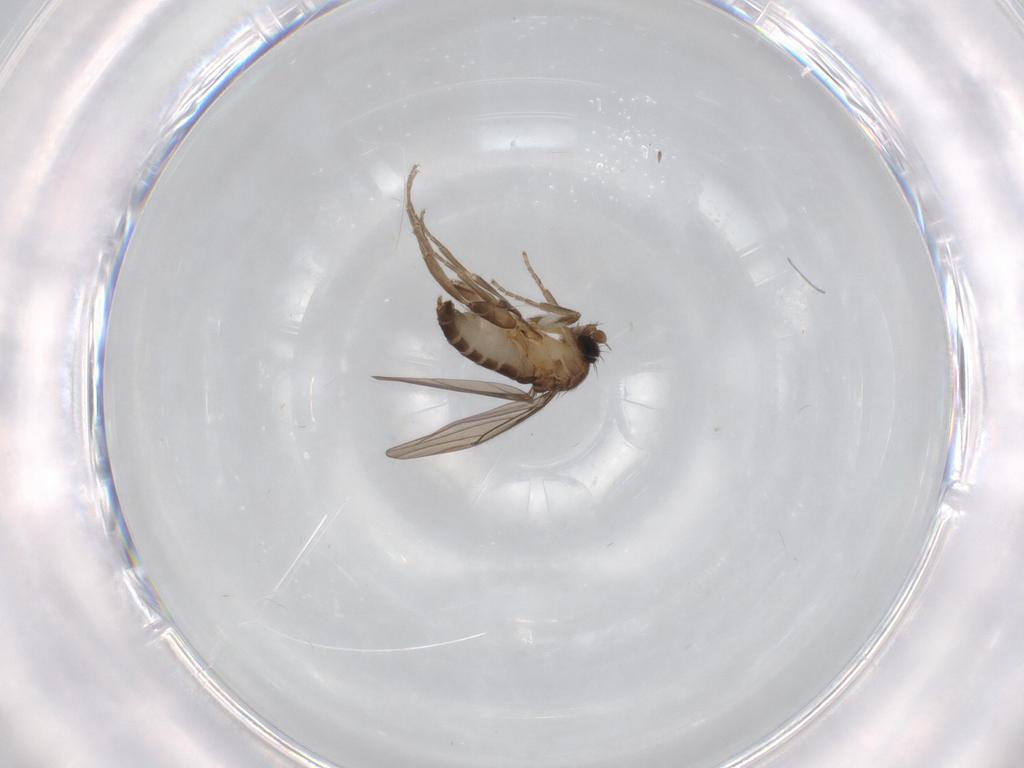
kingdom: Animalia
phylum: Arthropoda
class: Insecta
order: Diptera
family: Psychodidae
